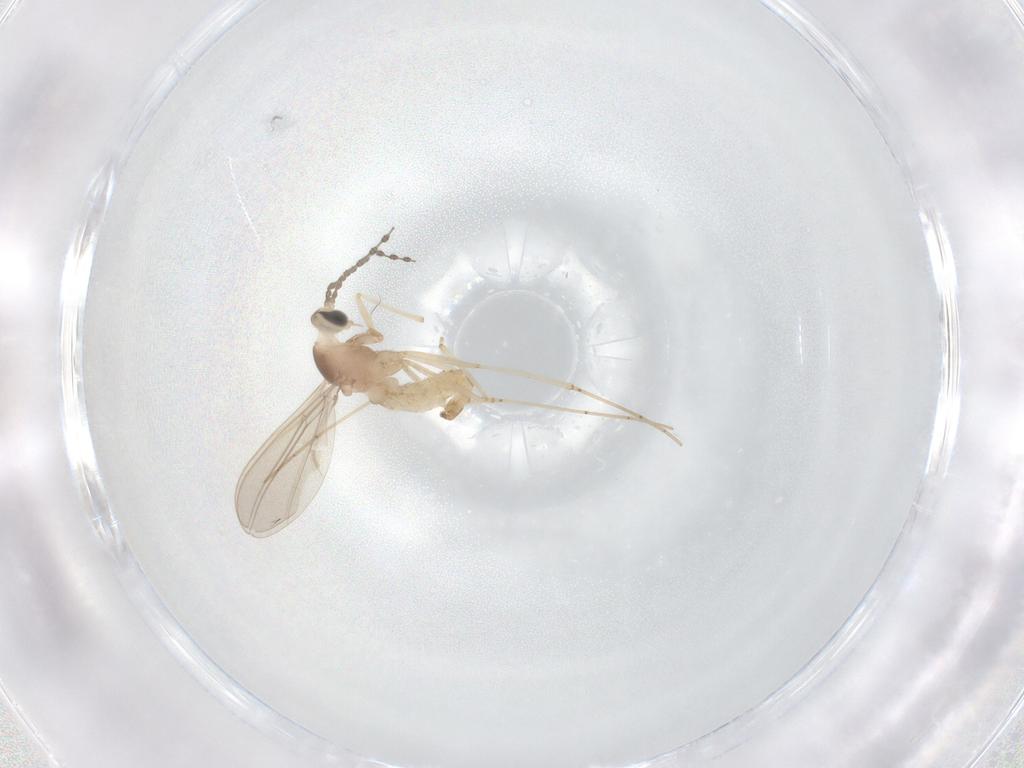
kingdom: Animalia
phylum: Arthropoda
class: Insecta
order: Diptera
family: Cecidomyiidae
